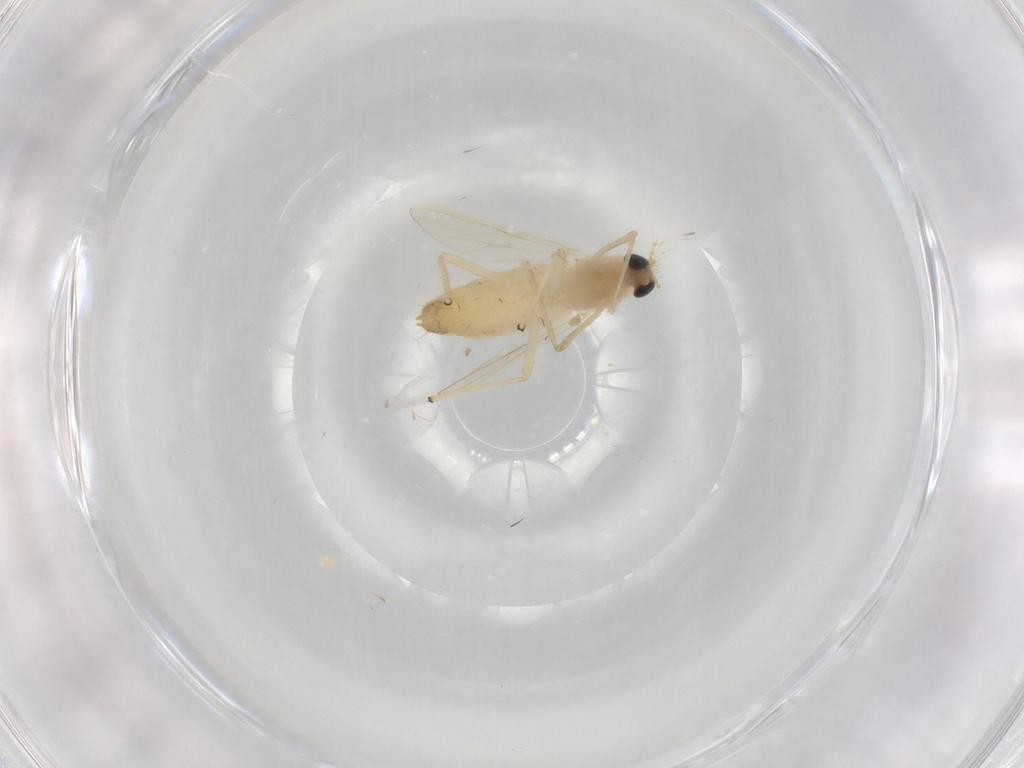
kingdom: Animalia
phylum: Arthropoda
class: Insecta
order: Diptera
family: Chironomidae
